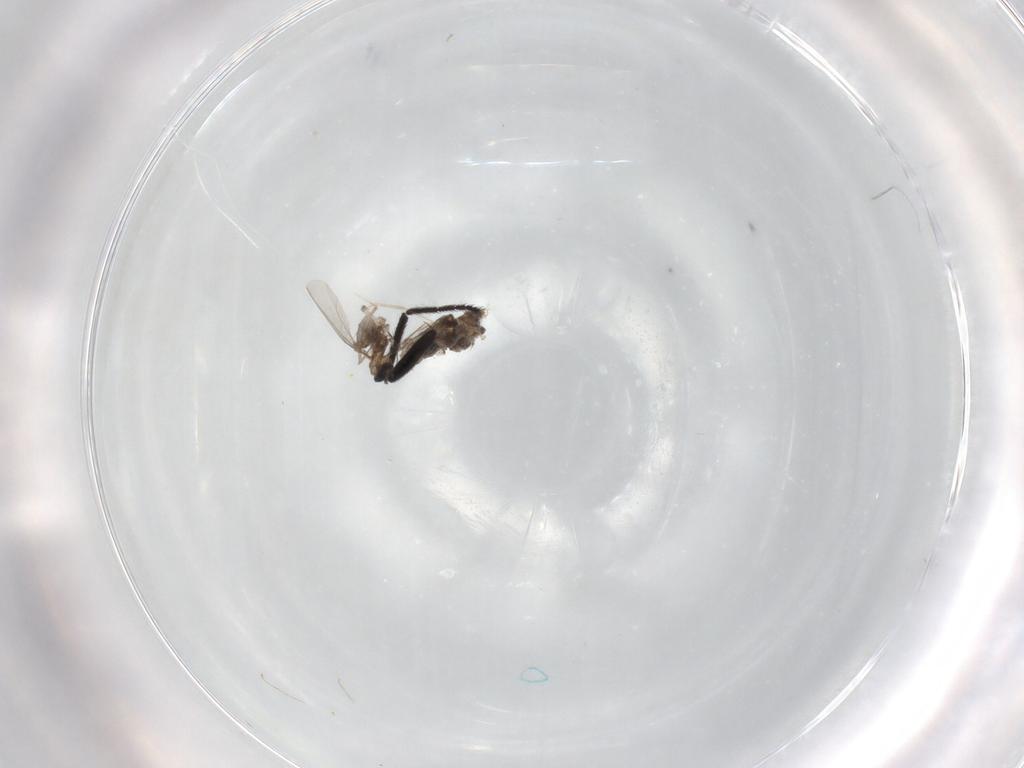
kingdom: Animalia
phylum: Arthropoda
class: Insecta
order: Diptera
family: Cecidomyiidae
